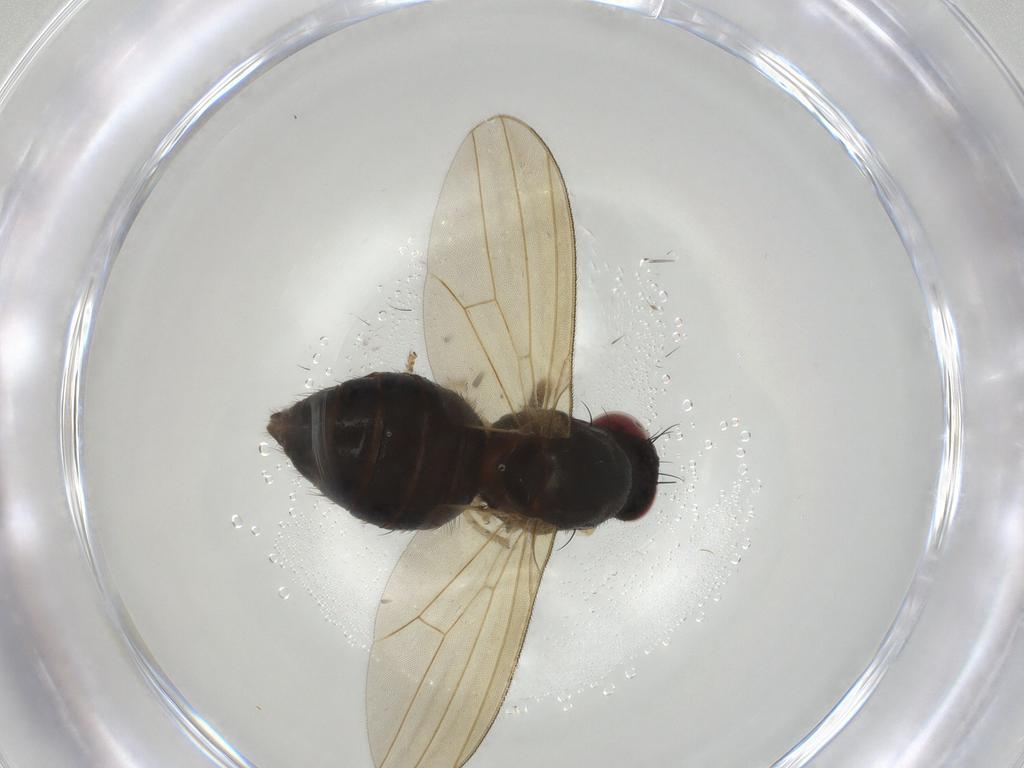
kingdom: Animalia
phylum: Arthropoda
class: Insecta
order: Diptera
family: Lauxaniidae
